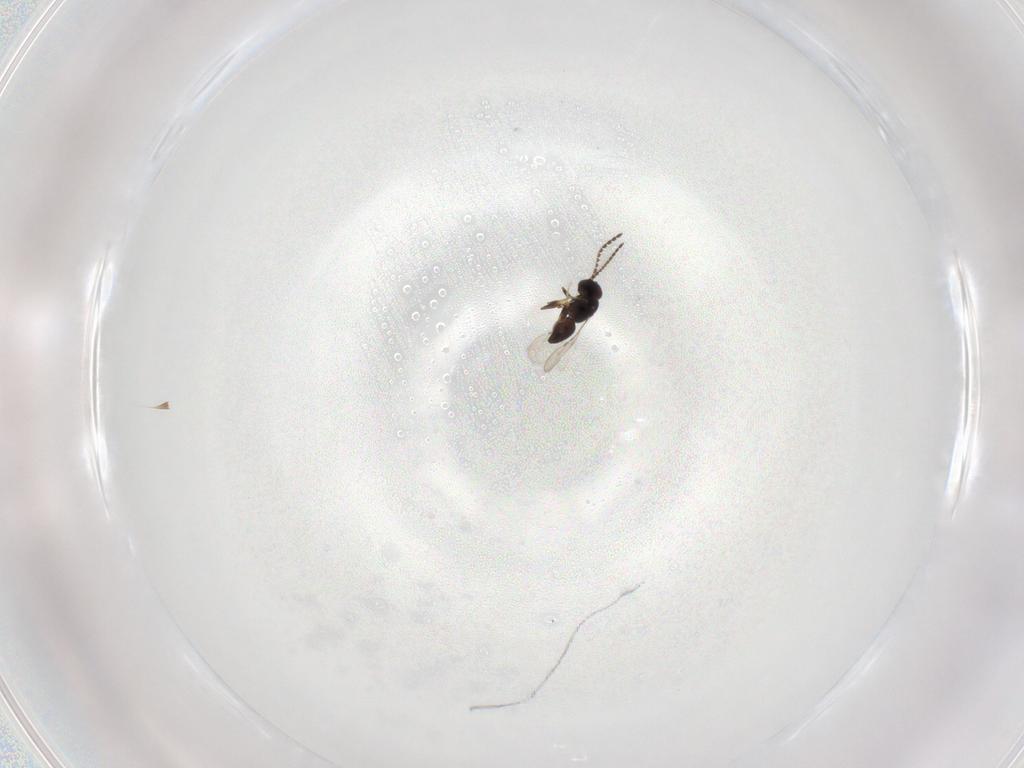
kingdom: Animalia
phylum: Arthropoda
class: Insecta
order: Hymenoptera
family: Ceraphronidae
